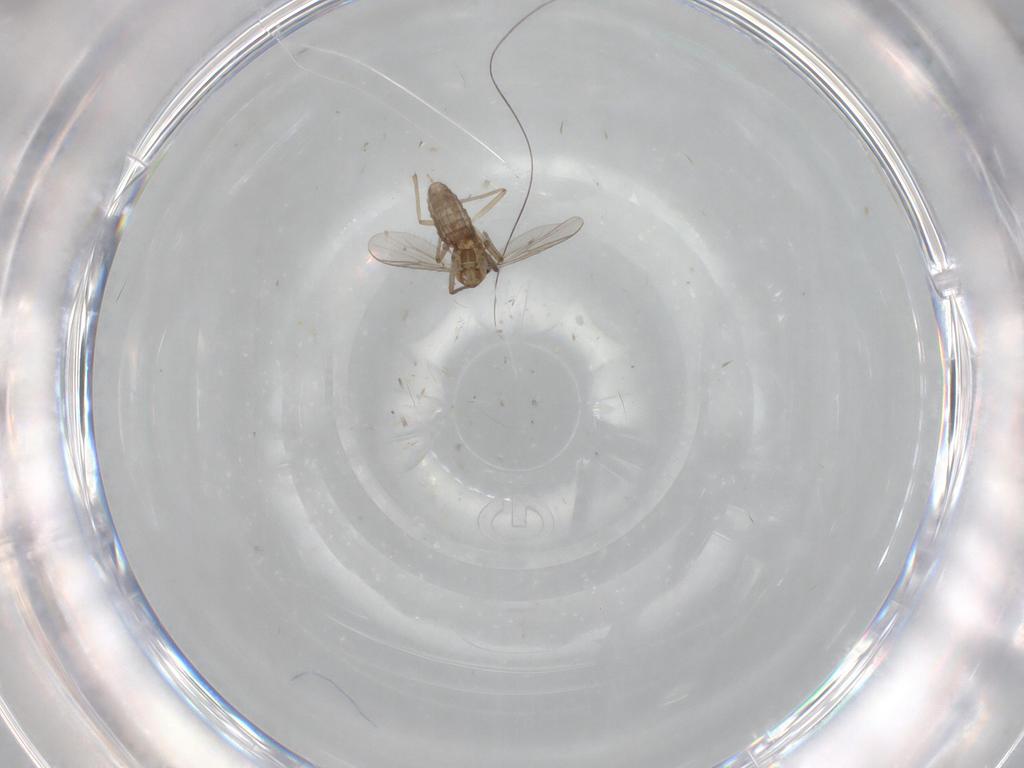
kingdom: Animalia
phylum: Arthropoda
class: Insecta
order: Diptera
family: Chironomidae
